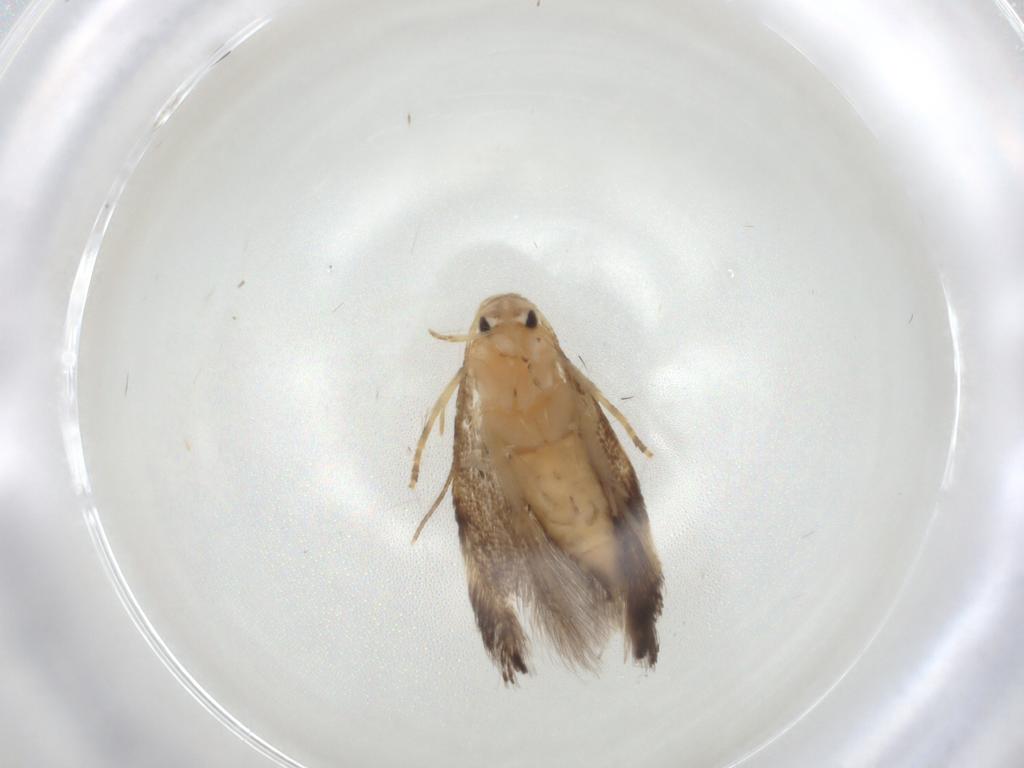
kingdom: Animalia
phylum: Arthropoda
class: Insecta
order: Lepidoptera
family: Elachistidae
